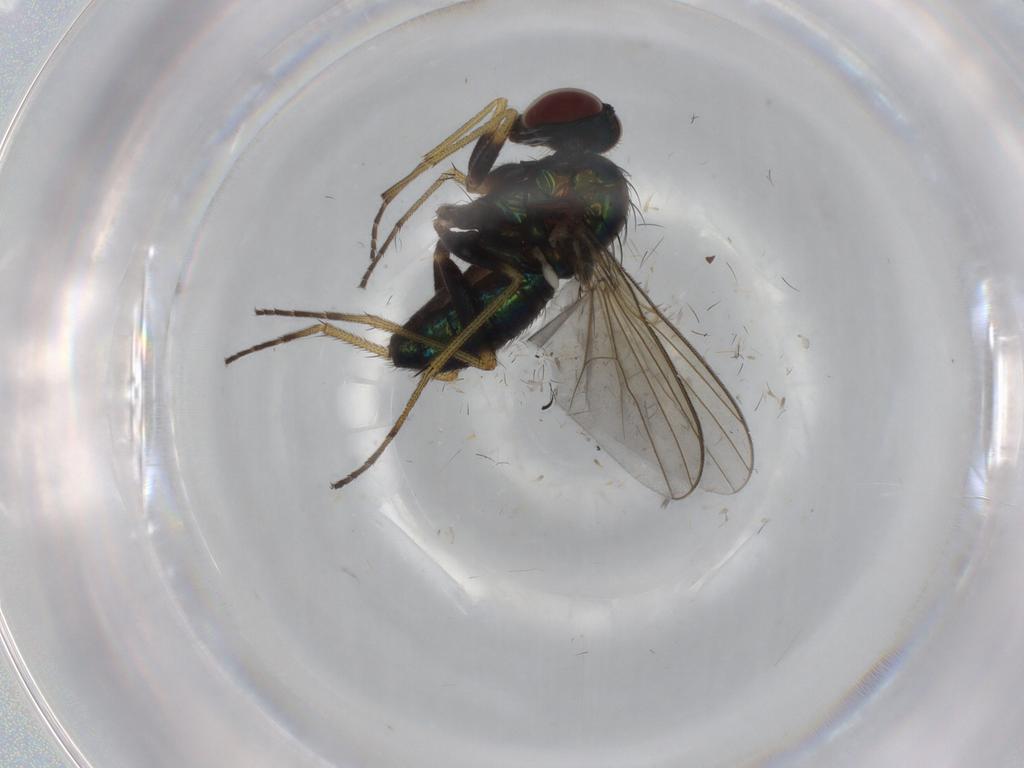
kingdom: Animalia
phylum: Arthropoda
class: Insecta
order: Diptera
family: Dolichopodidae
